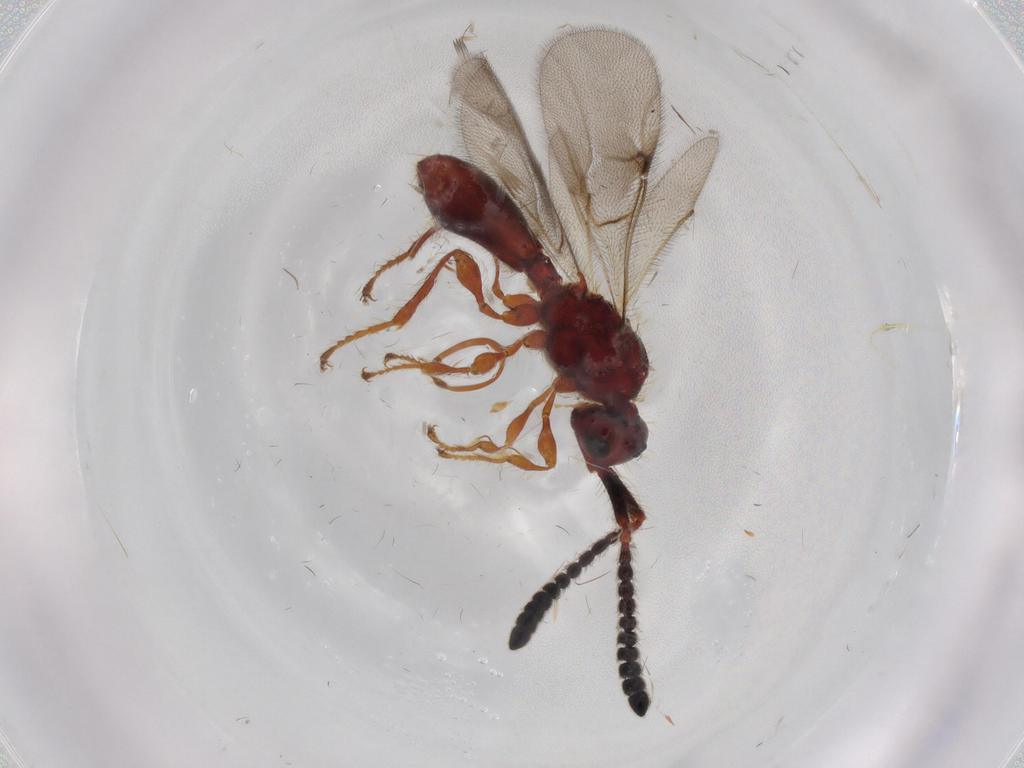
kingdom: Animalia
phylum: Arthropoda
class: Insecta
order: Hymenoptera
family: Diapriidae
